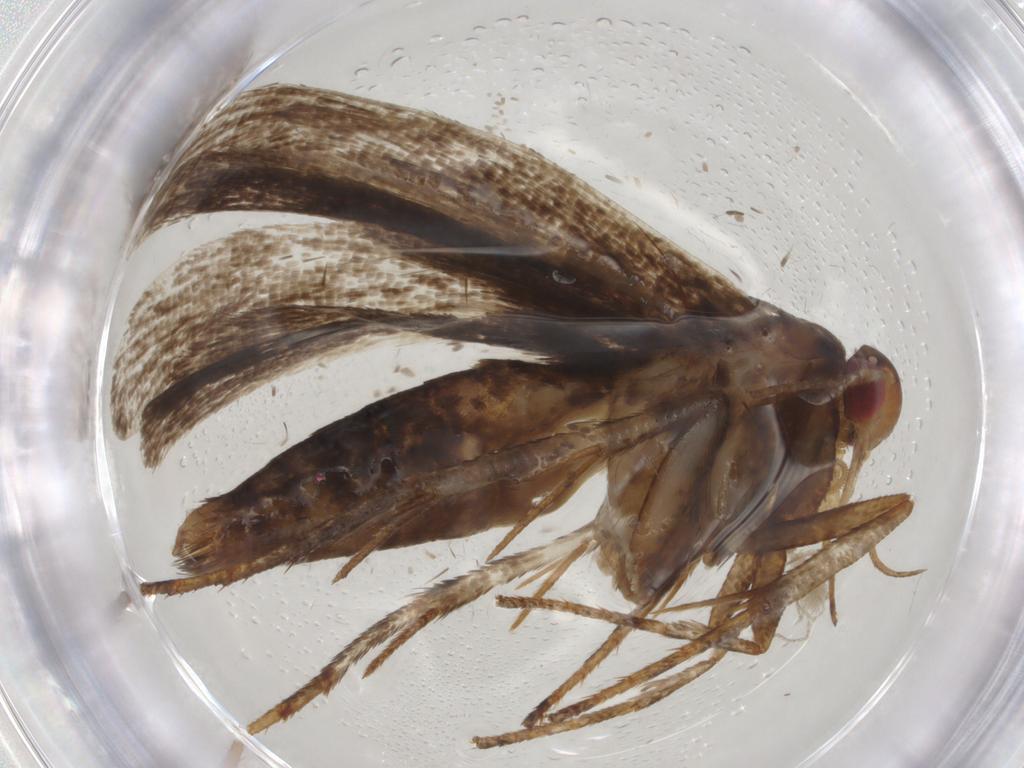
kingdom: Animalia
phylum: Arthropoda
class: Insecta
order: Lepidoptera
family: Gelechiidae
